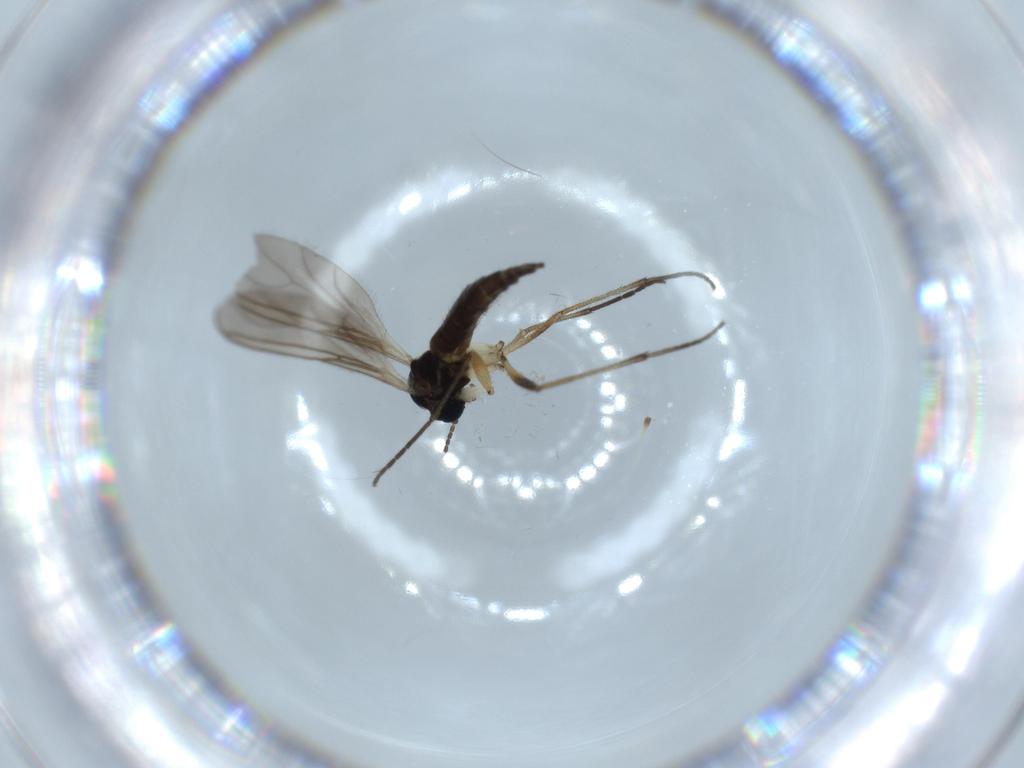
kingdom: Animalia
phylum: Arthropoda
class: Insecta
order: Diptera
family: Sciaridae
